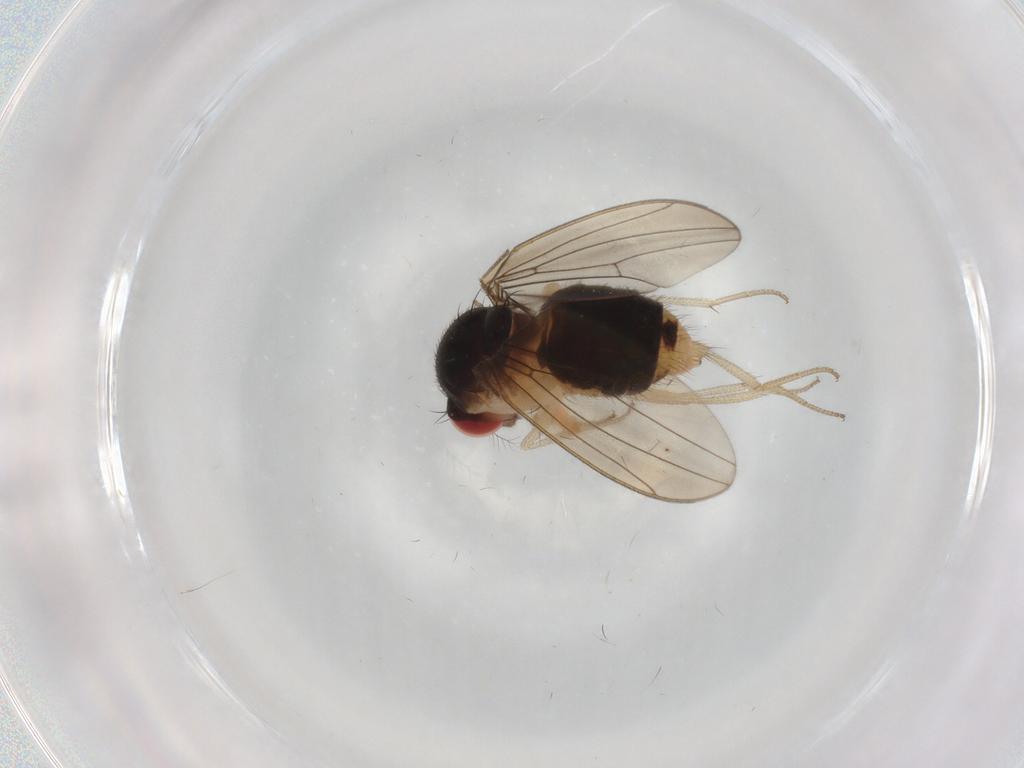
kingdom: Animalia
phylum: Arthropoda
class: Insecta
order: Diptera
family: Drosophilidae
